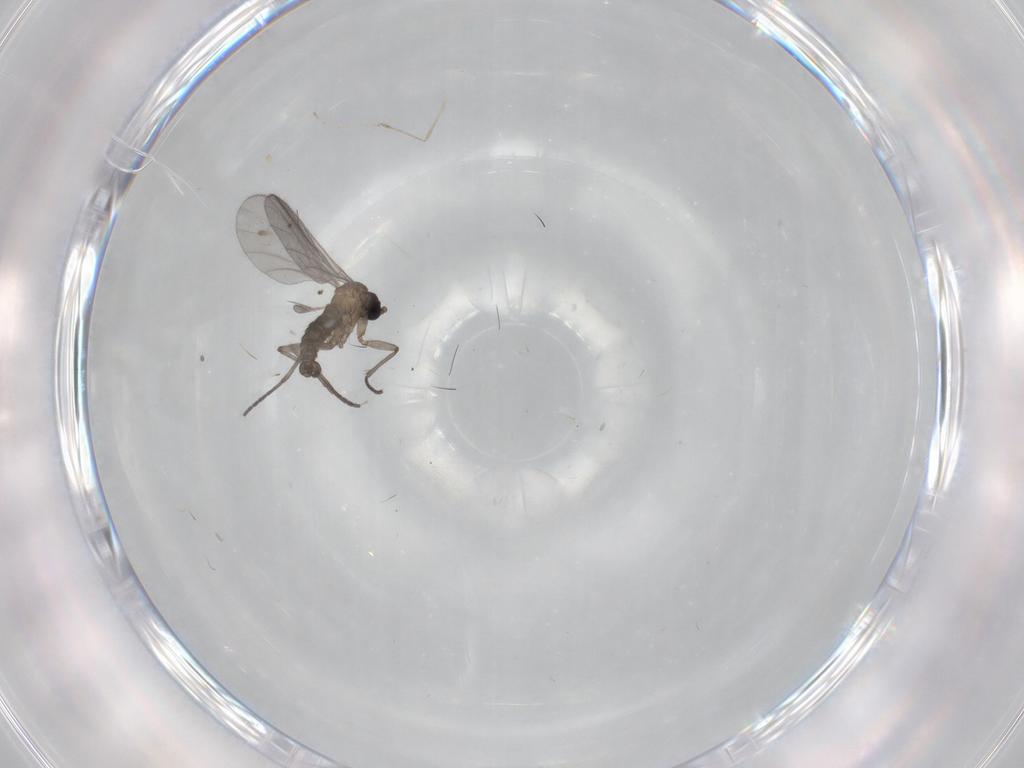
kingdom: Animalia
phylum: Arthropoda
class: Insecta
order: Diptera
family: Sciaridae
